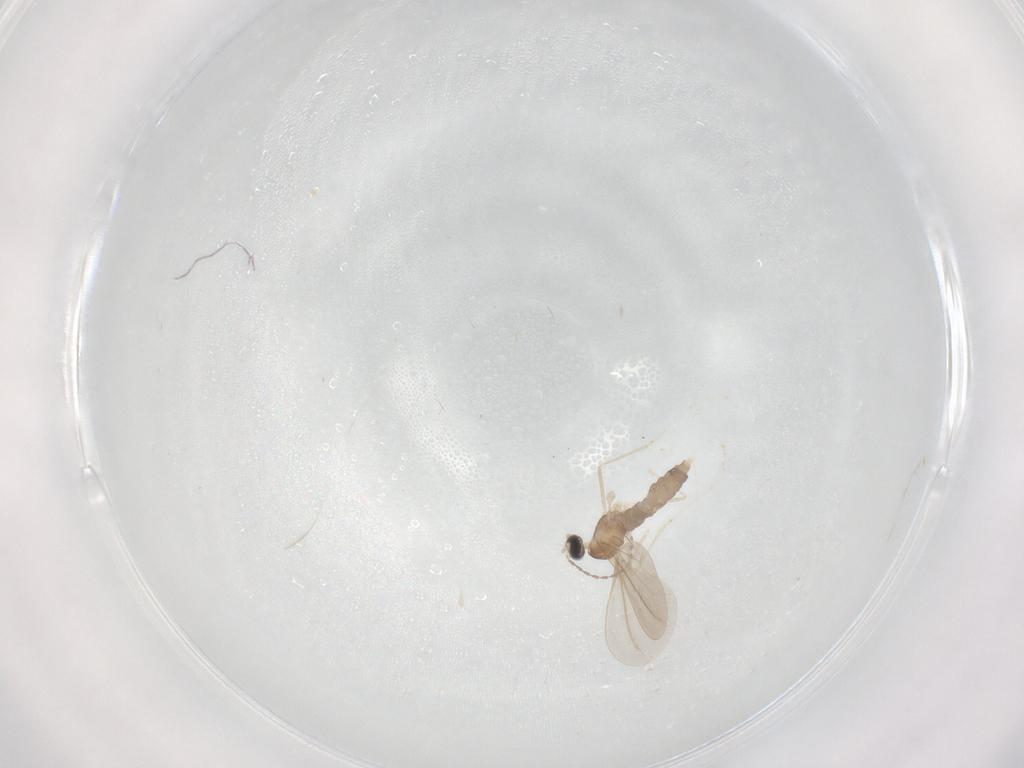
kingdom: Animalia
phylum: Arthropoda
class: Insecta
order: Diptera
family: Cecidomyiidae
